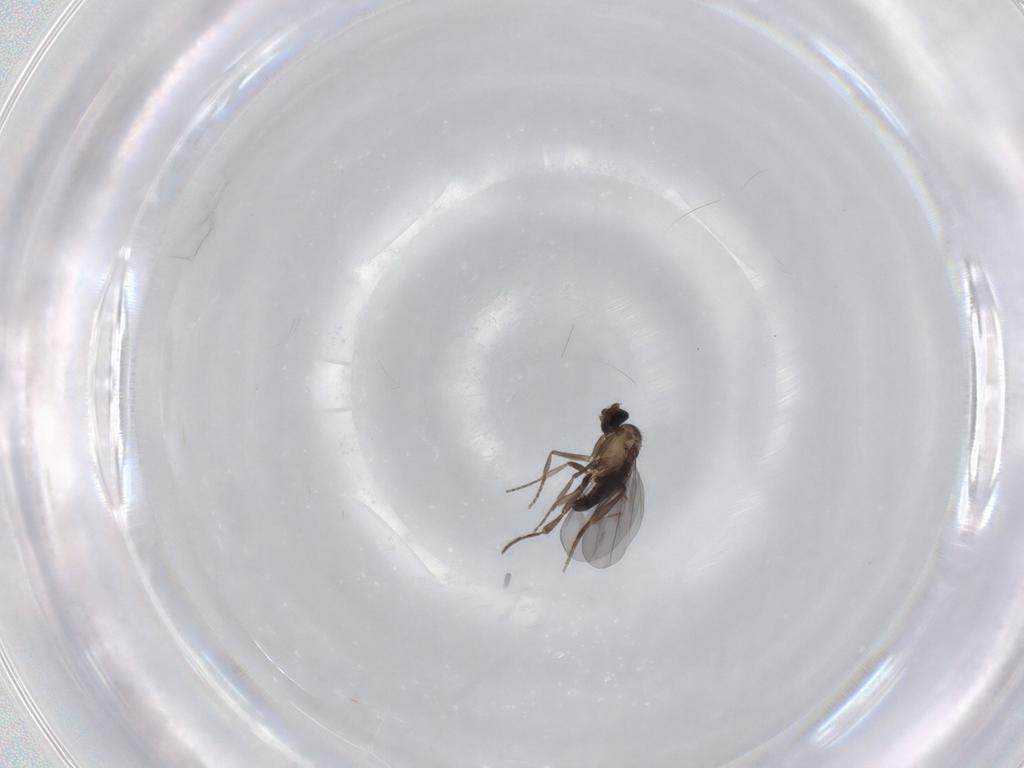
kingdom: Animalia
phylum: Arthropoda
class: Insecta
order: Diptera
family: Phoridae
